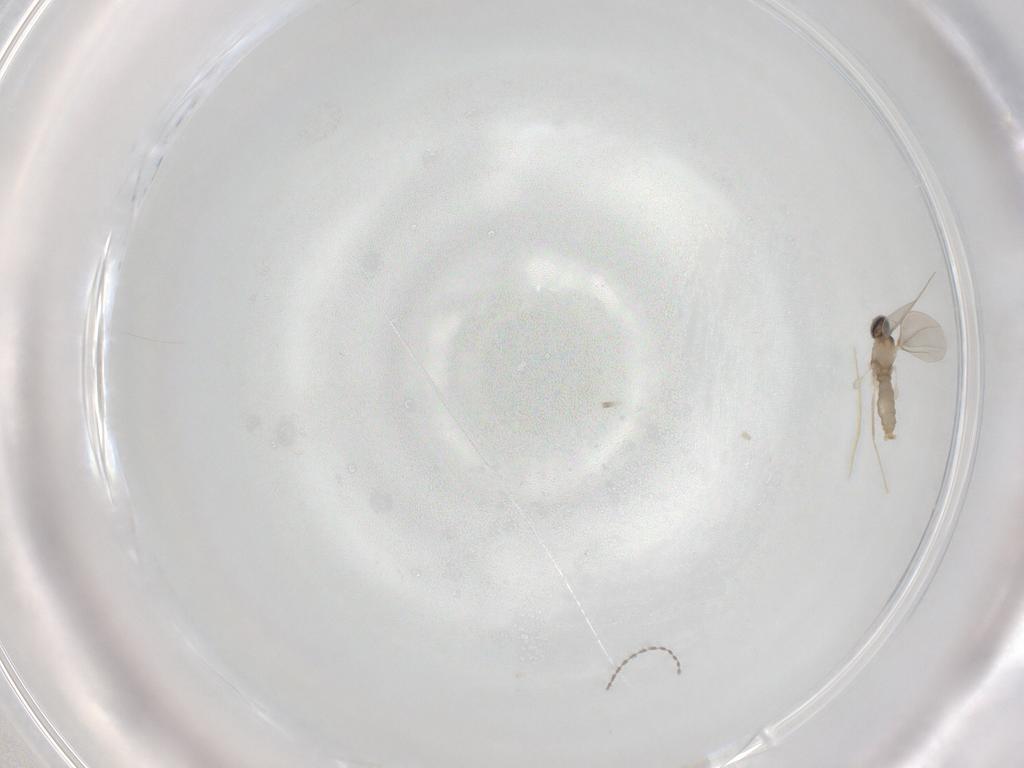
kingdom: Animalia
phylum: Arthropoda
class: Insecta
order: Diptera
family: Cecidomyiidae
